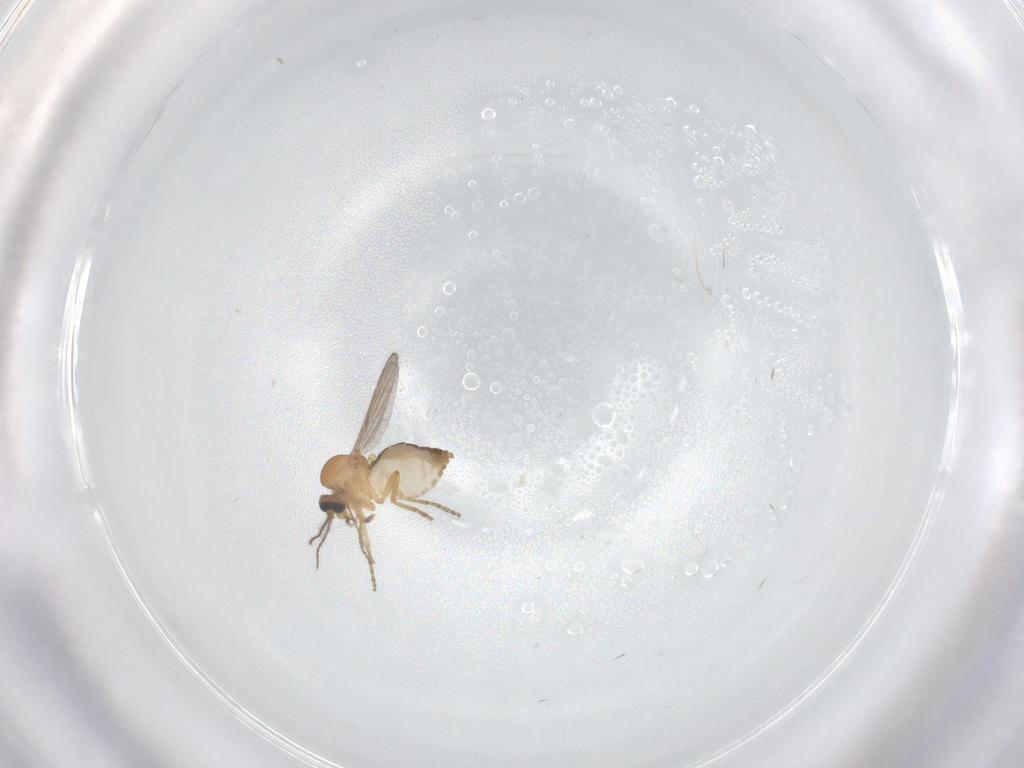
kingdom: Animalia
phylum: Arthropoda
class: Insecta
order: Diptera
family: Ceratopogonidae
